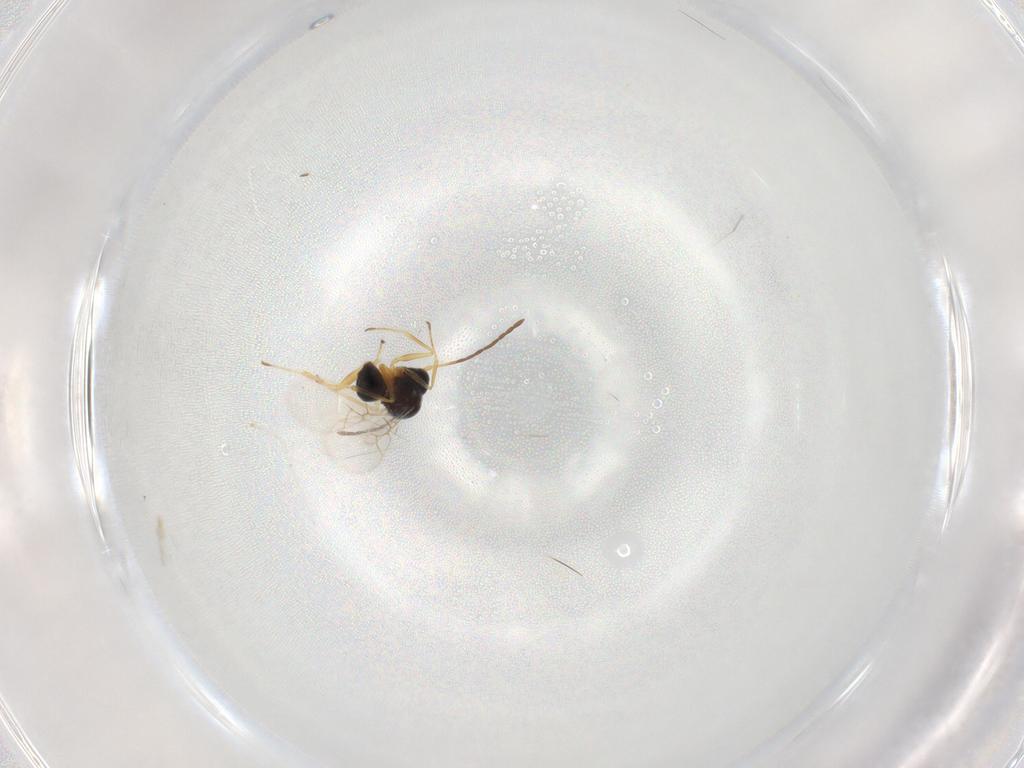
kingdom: Animalia
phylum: Arthropoda
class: Insecta
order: Hymenoptera
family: Figitidae
